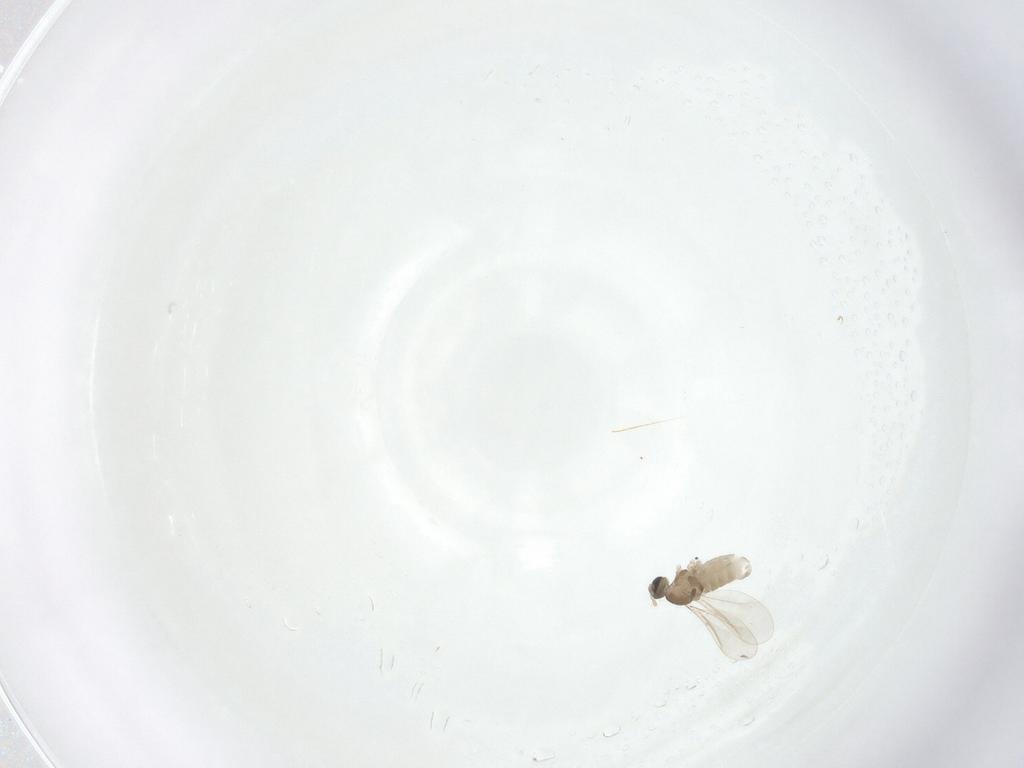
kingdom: Animalia
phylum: Arthropoda
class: Insecta
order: Diptera
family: Cecidomyiidae
